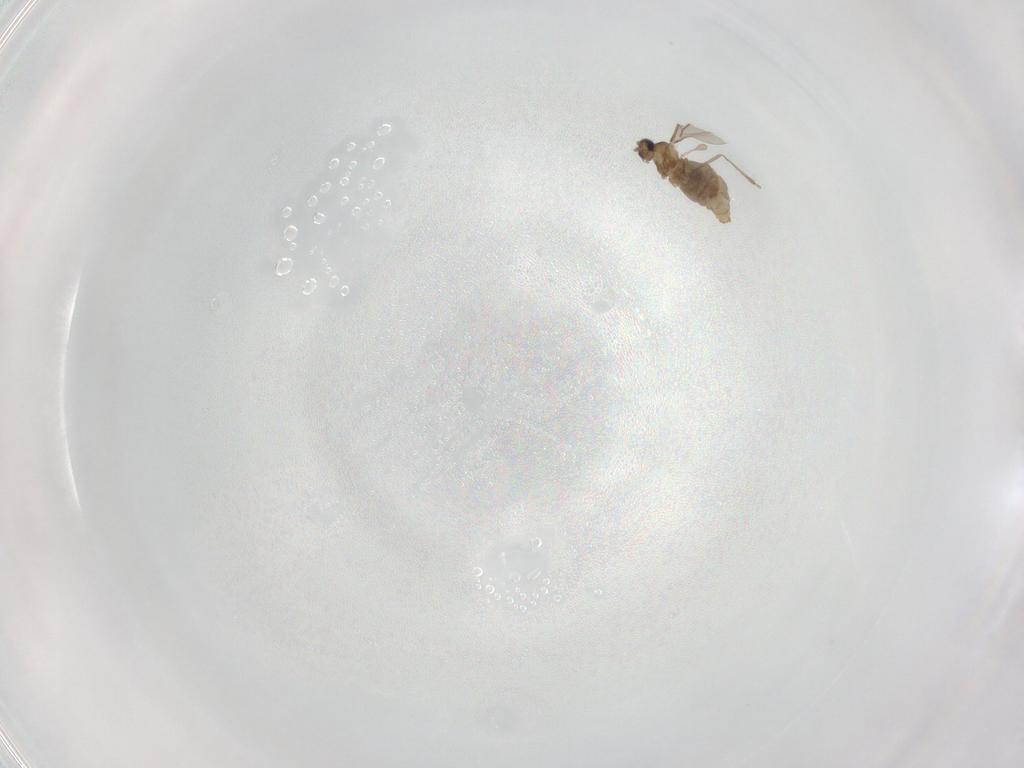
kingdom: Animalia
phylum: Arthropoda
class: Insecta
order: Diptera
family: Cecidomyiidae
